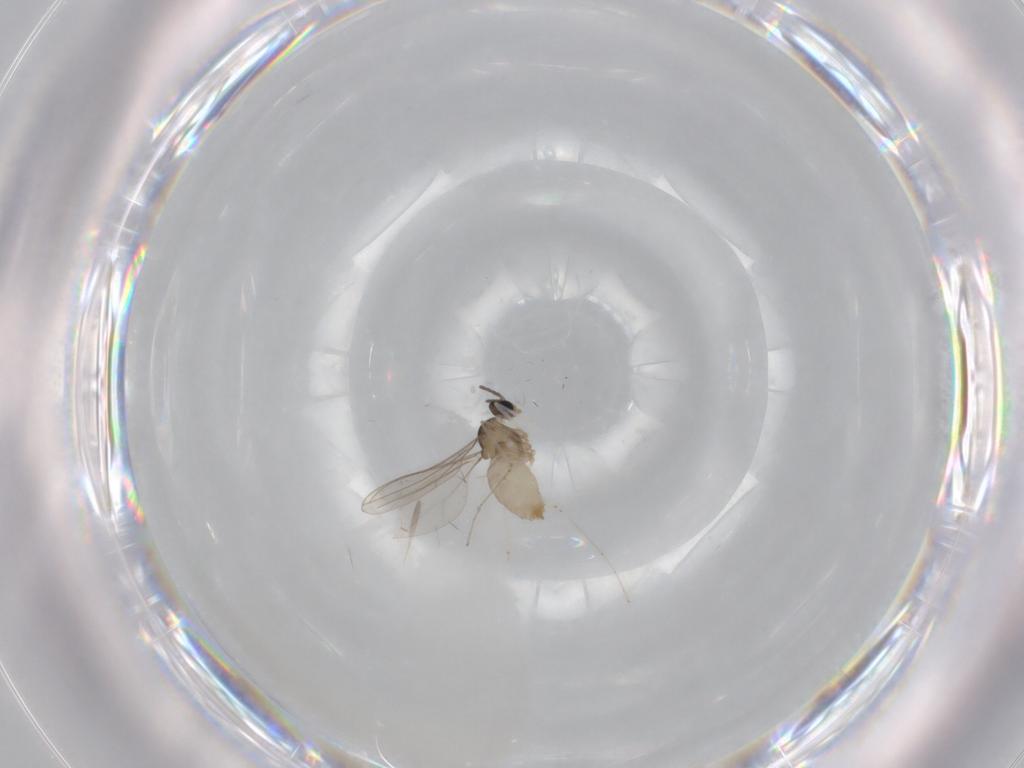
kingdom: Animalia
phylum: Arthropoda
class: Insecta
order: Diptera
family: Cecidomyiidae
